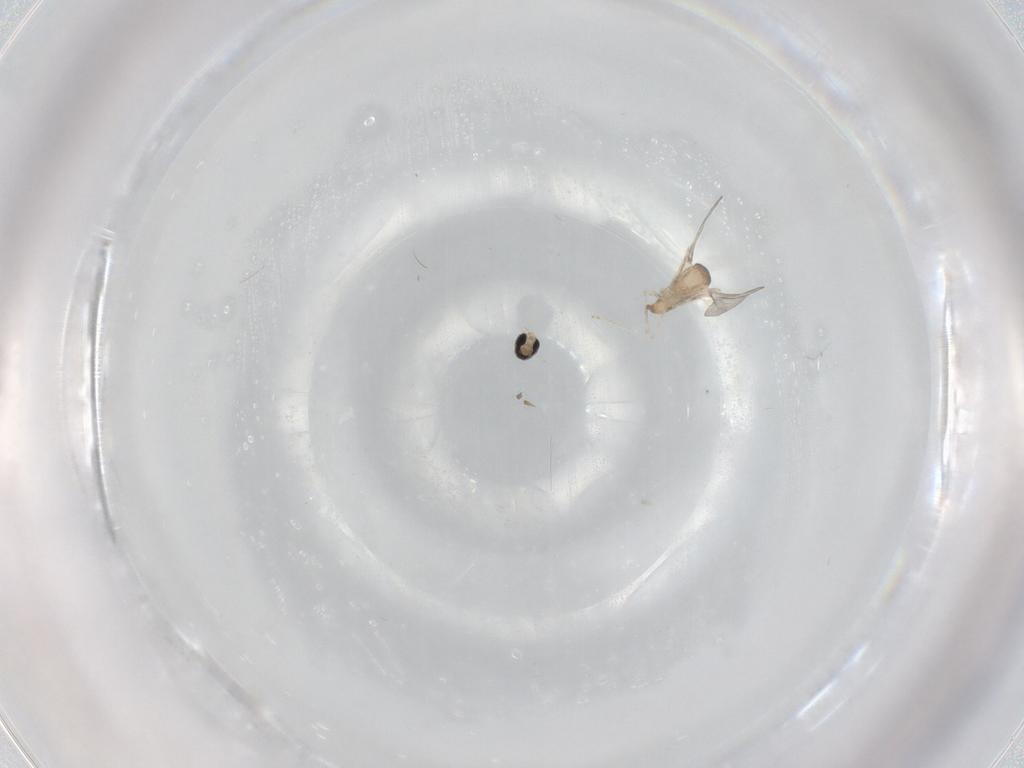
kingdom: Animalia
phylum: Arthropoda
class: Insecta
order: Diptera
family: Cecidomyiidae
